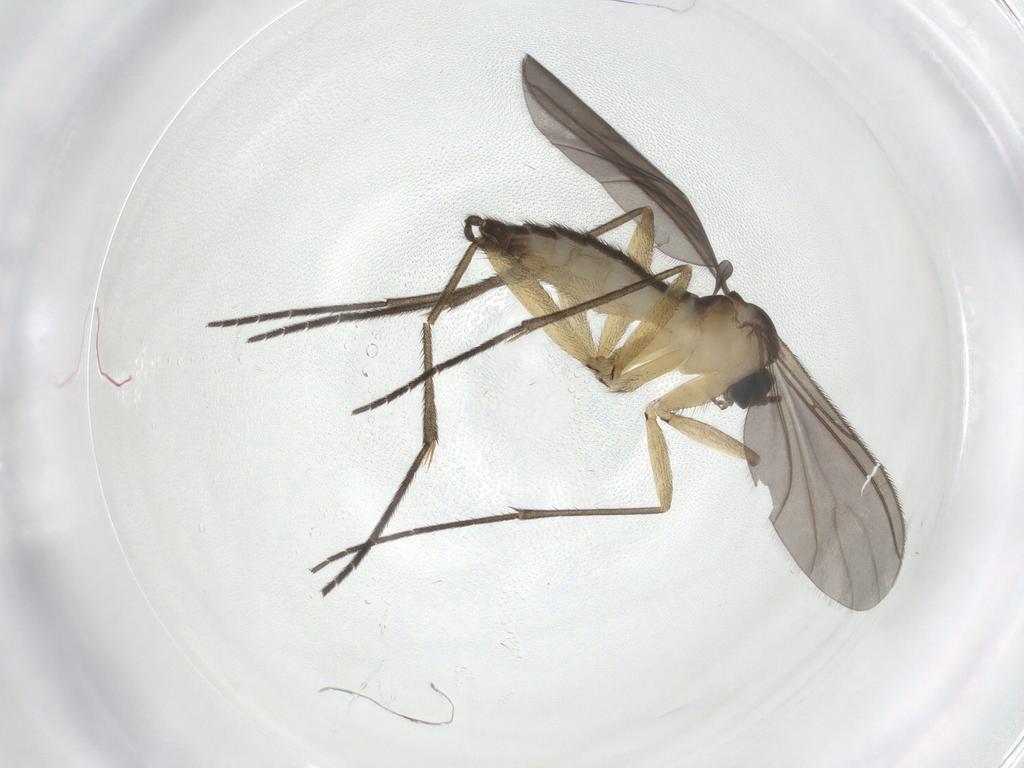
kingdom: Animalia
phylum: Arthropoda
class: Insecta
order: Diptera
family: Sciaridae
